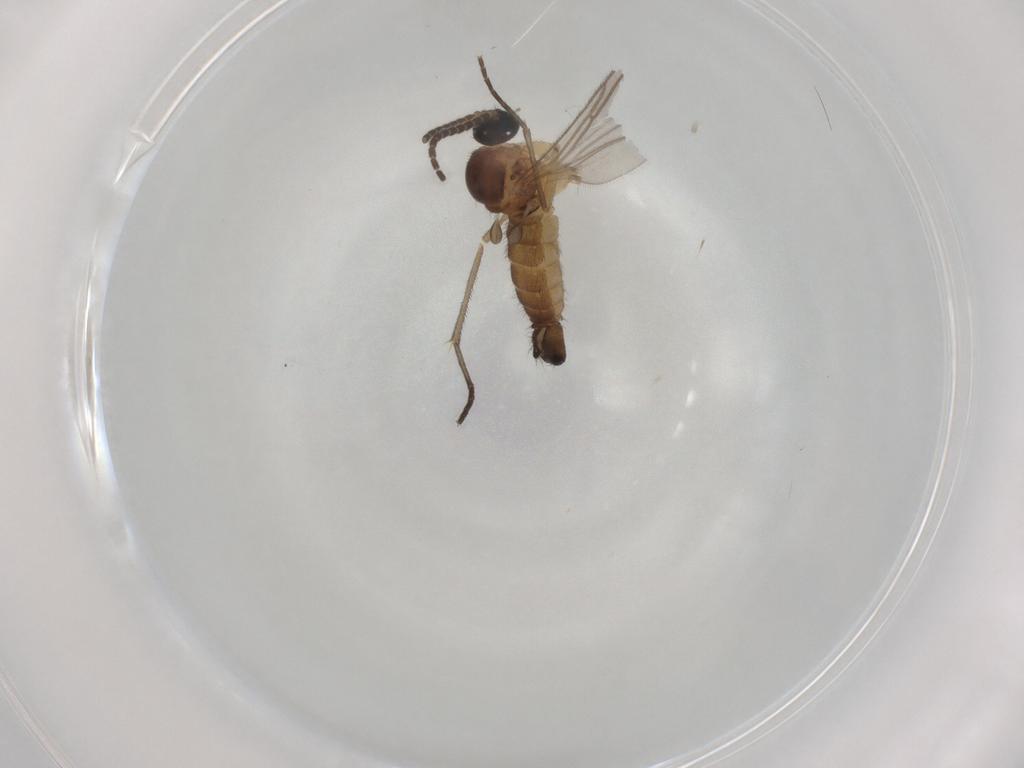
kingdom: Animalia
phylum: Arthropoda
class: Insecta
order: Diptera
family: Sciaridae
